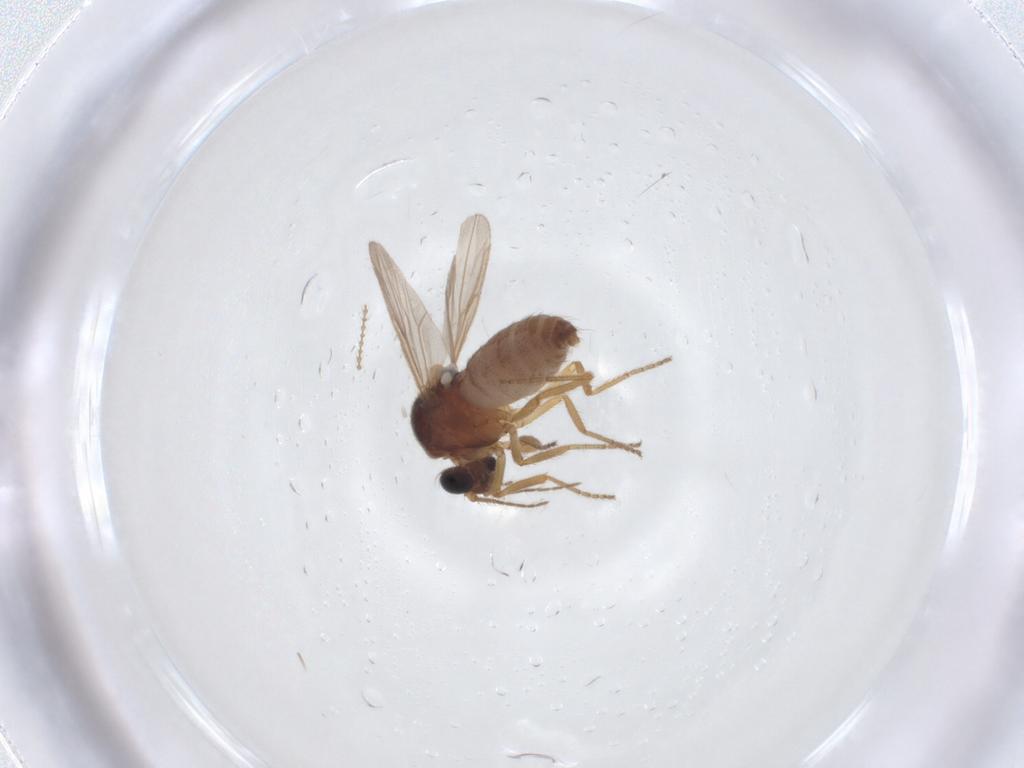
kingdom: Animalia
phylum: Arthropoda
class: Insecta
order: Diptera
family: Ceratopogonidae
